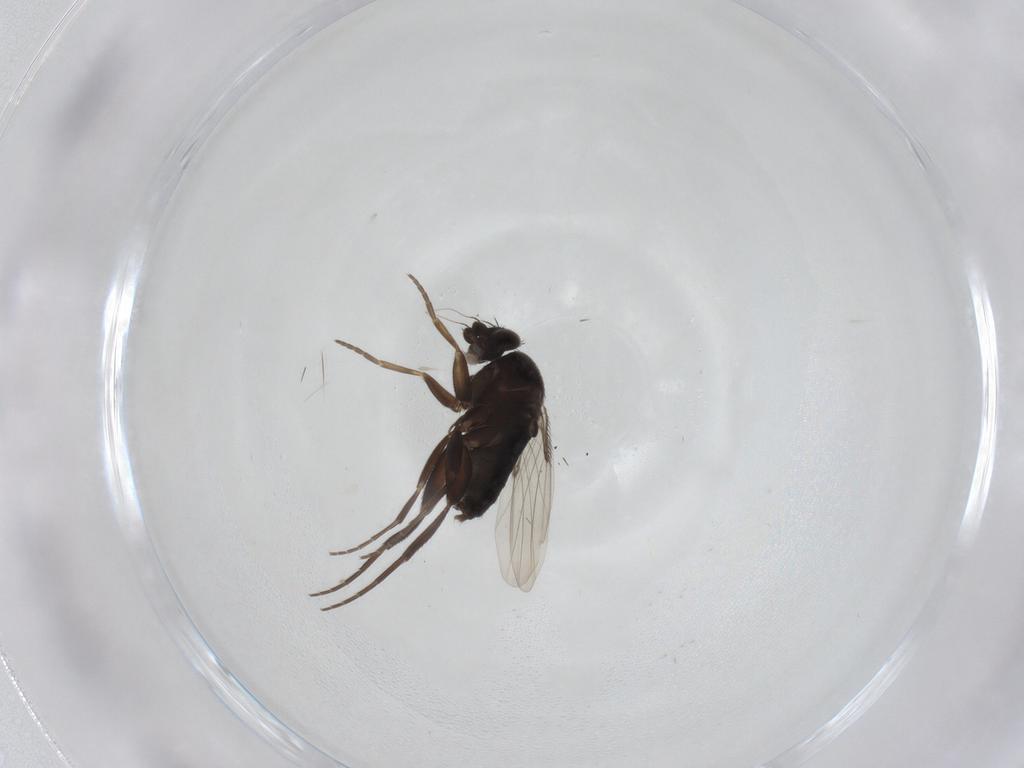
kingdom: Animalia
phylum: Arthropoda
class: Insecta
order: Diptera
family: Phoridae
